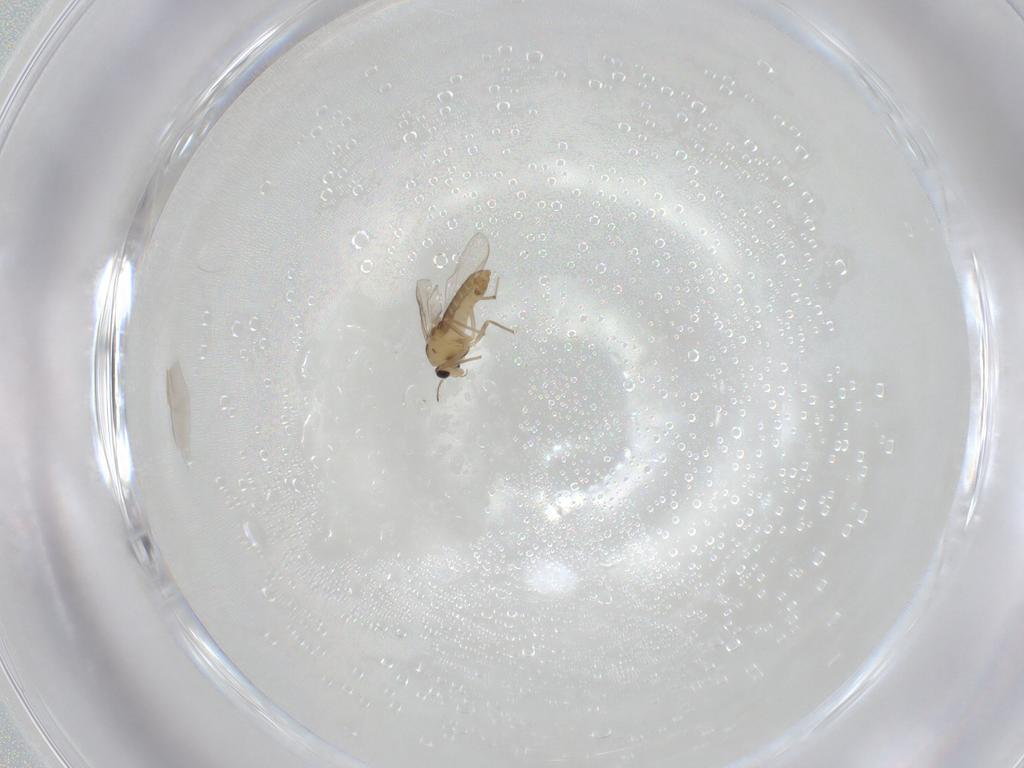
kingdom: Animalia
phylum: Arthropoda
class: Insecta
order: Diptera
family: Chironomidae
